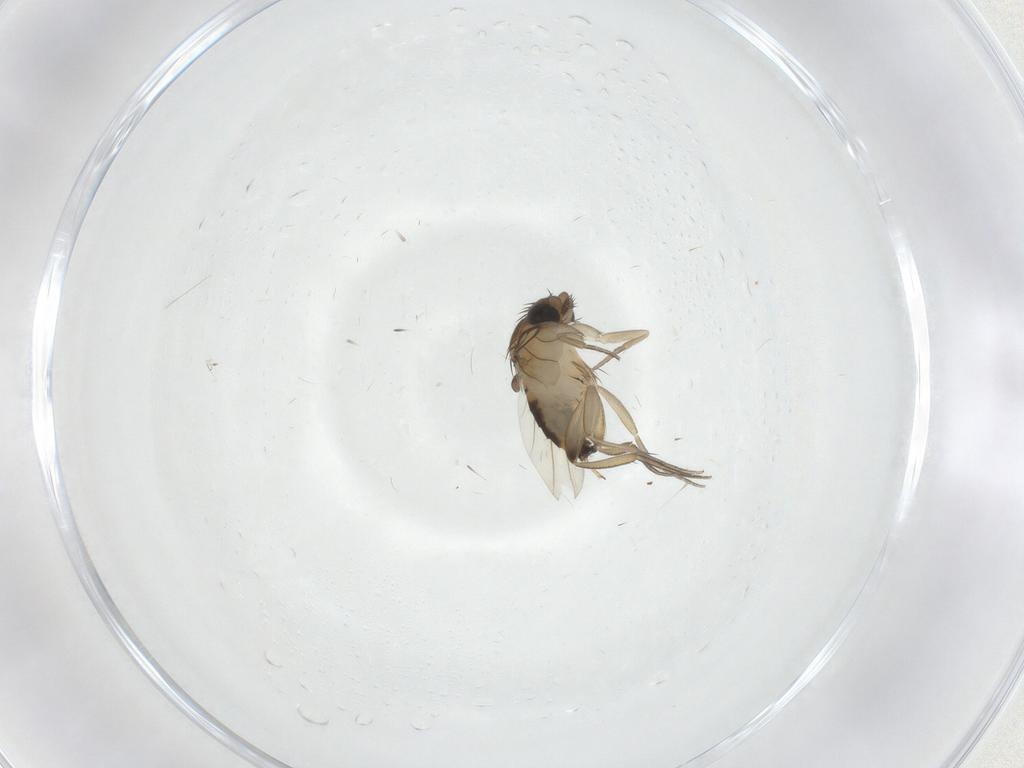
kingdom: Animalia
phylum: Arthropoda
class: Insecta
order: Diptera
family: Phoridae
